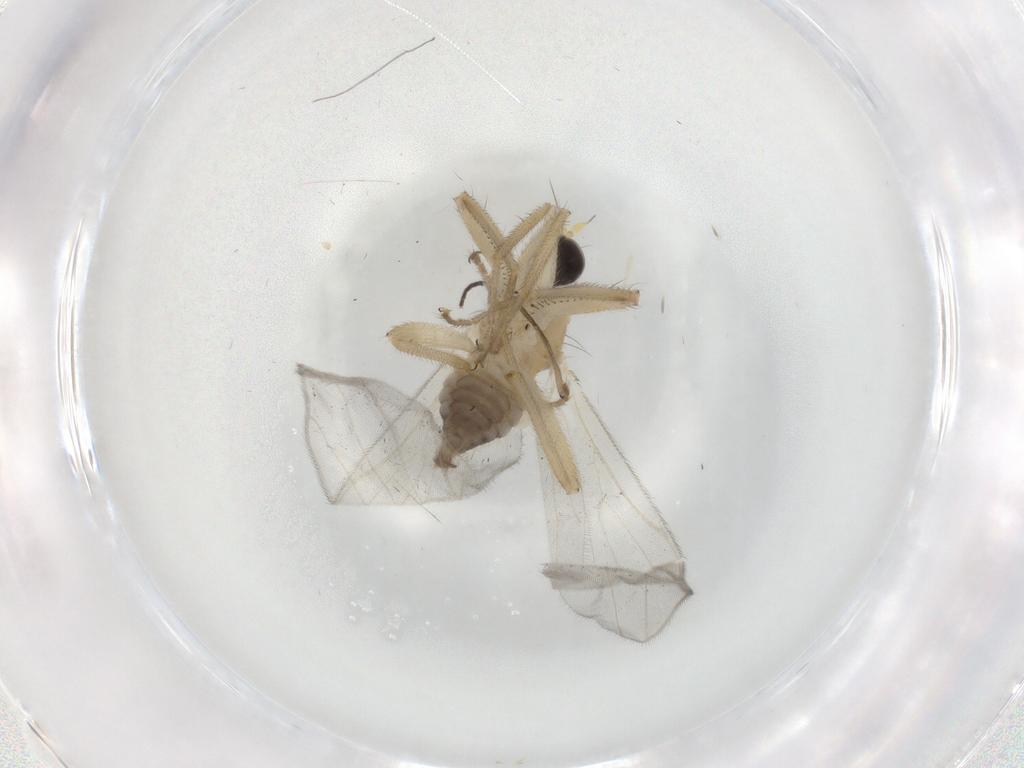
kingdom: Animalia
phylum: Arthropoda
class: Insecta
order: Diptera
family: Hybotidae
